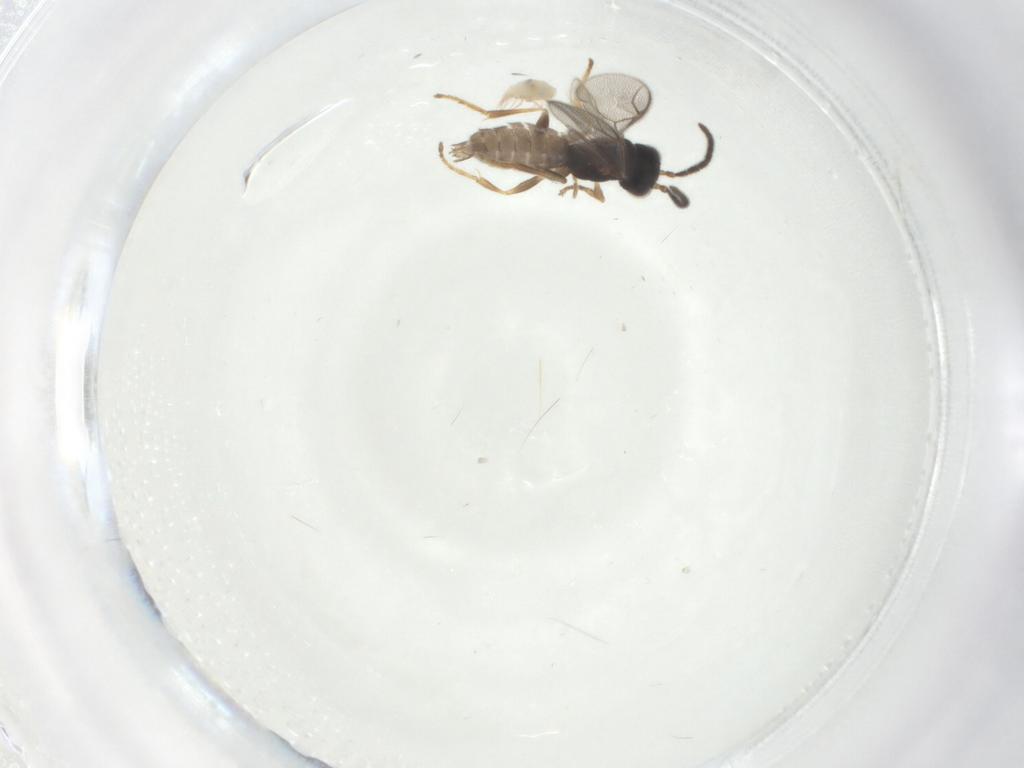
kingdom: Animalia
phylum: Arthropoda
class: Insecta
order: Hymenoptera
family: Dryinidae
